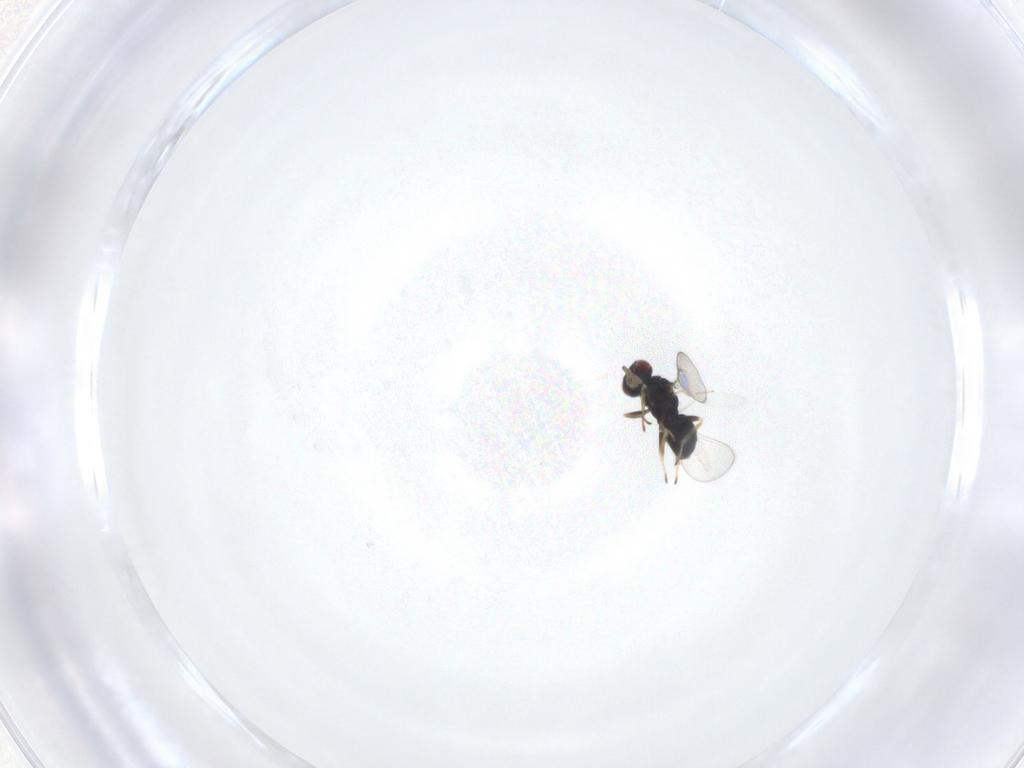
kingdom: Animalia
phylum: Arthropoda
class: Insecta
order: Hymenoptera
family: Eulophidae
